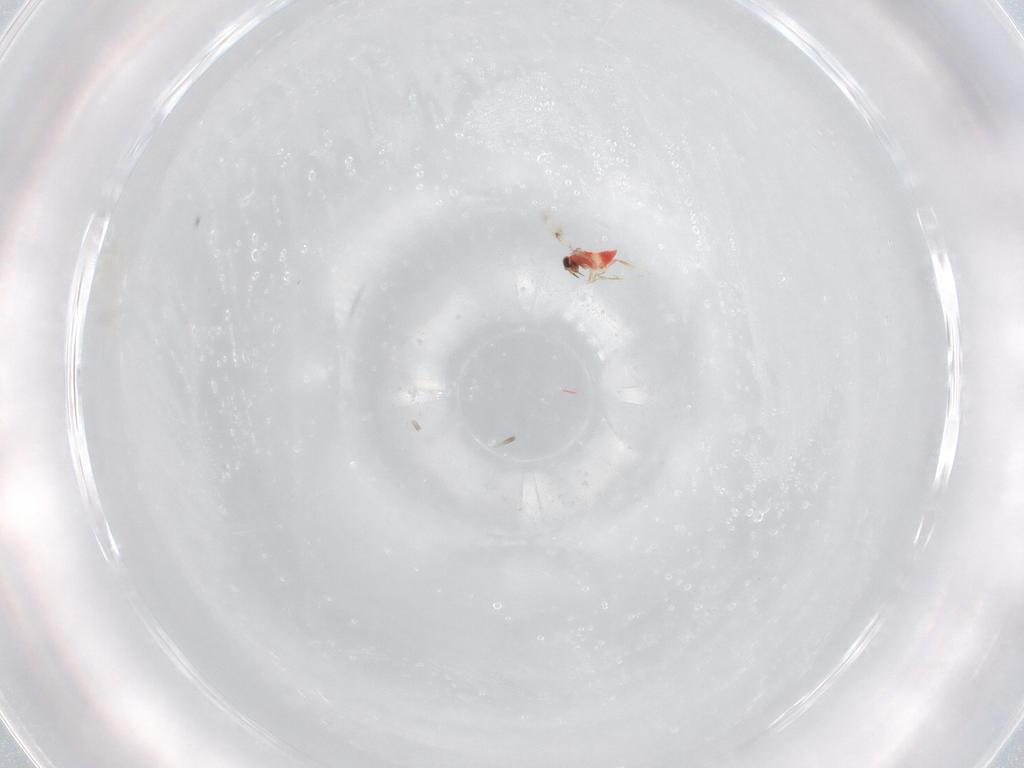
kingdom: Animalia
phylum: Arthropoda
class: Insecta
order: Hymenoptera
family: Trichogrammatidae
